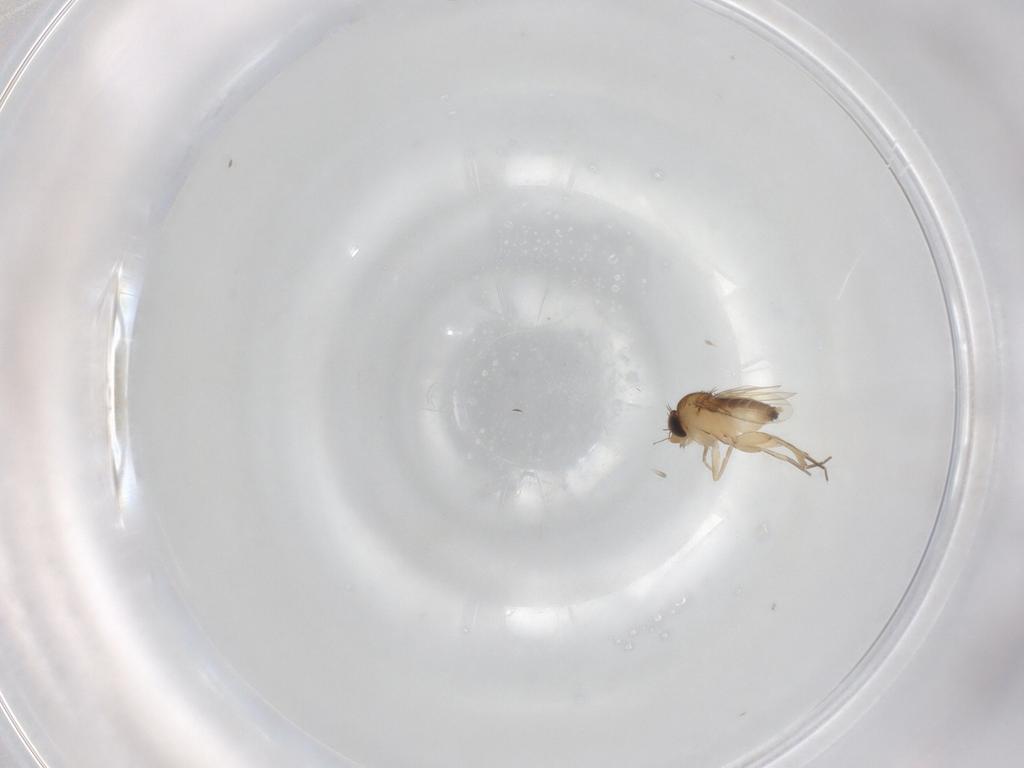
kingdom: Animalia
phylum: Arthropoda
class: Insecta
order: Diptera
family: Phoridae
